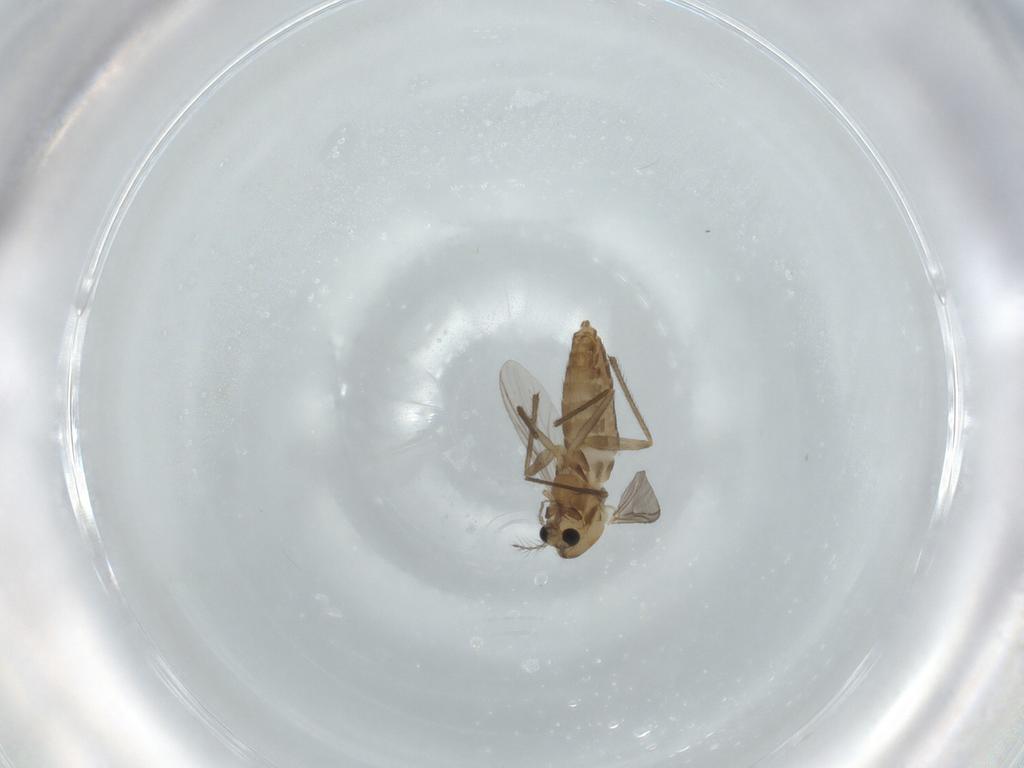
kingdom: Animalia
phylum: Arthropoda
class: Insecta
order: Diptera
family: Chironomidae
